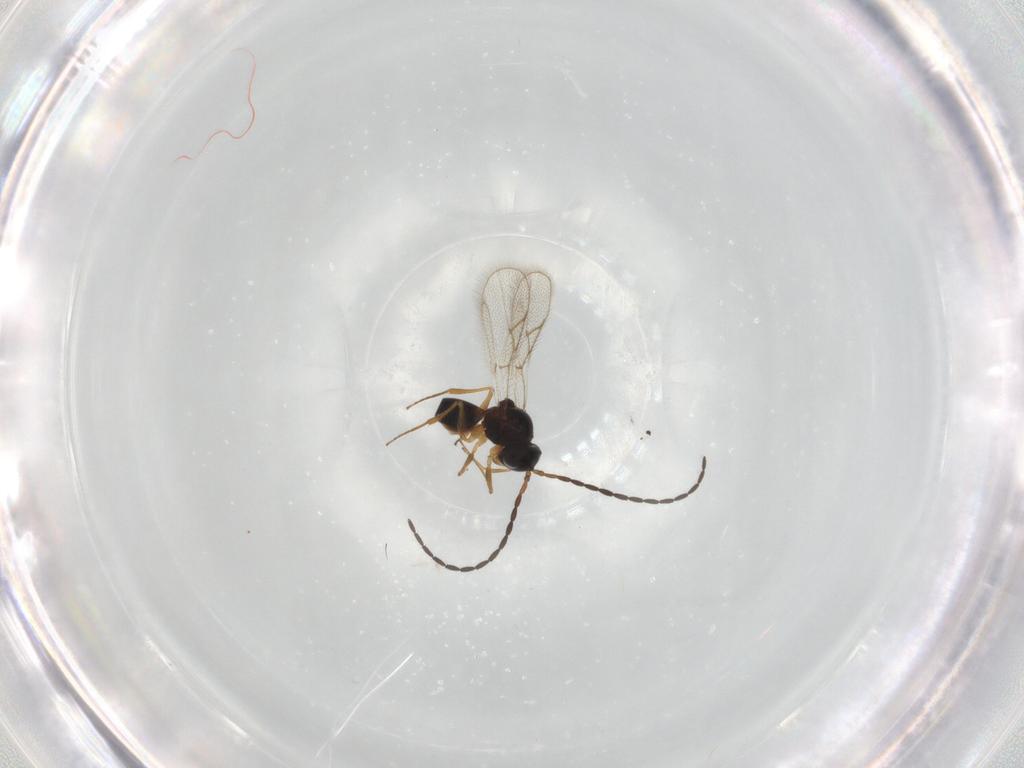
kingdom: Animalia
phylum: Arthropoda
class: Insecta
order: Hymenoptera
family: Figitidae
